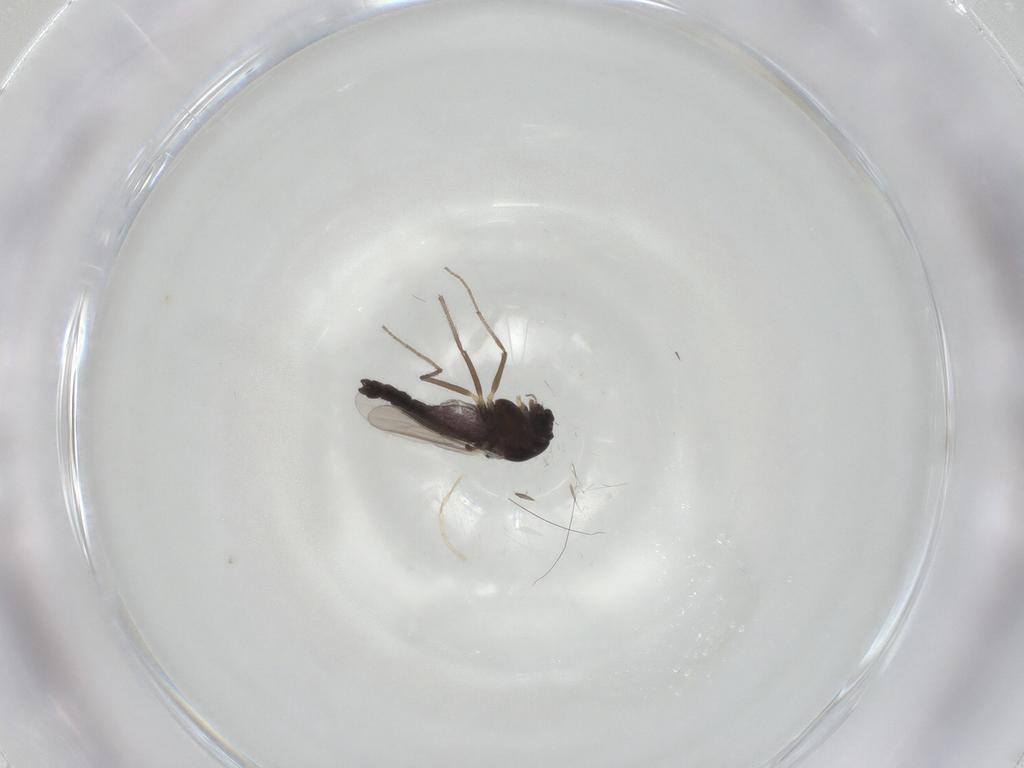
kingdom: Animalia
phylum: Arthropoda
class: Insecta
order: Diptera
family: Chironomidae
